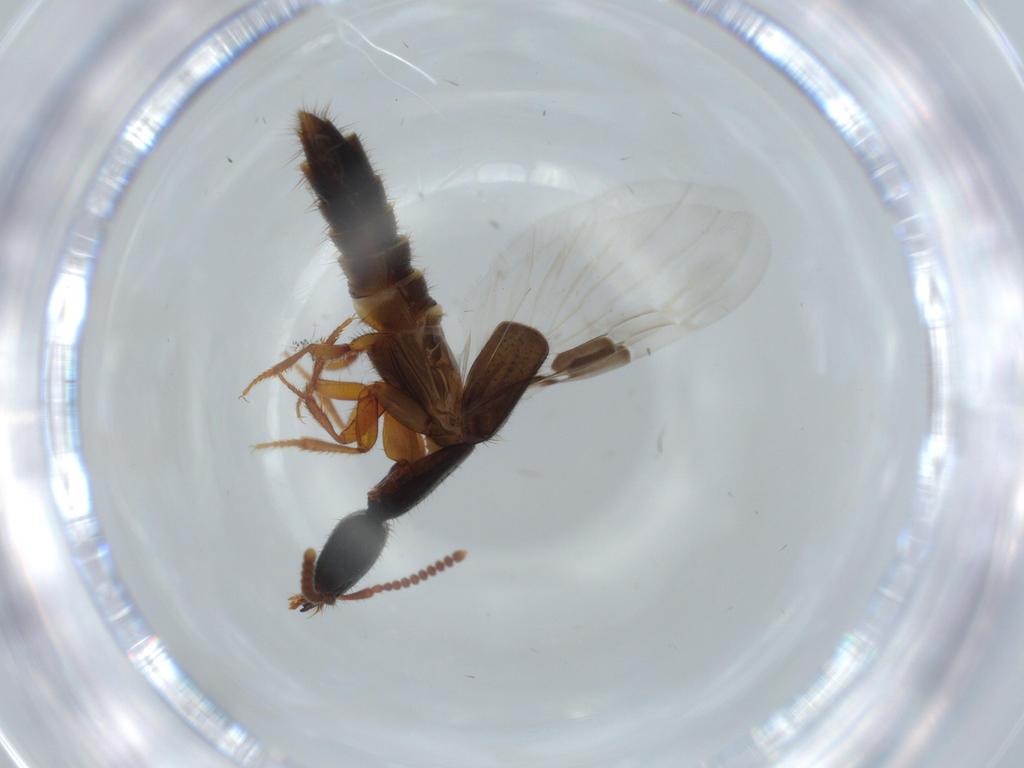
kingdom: Animalia
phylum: Arthropoda
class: Insecta
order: Coleoptera
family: Staphylinidae
